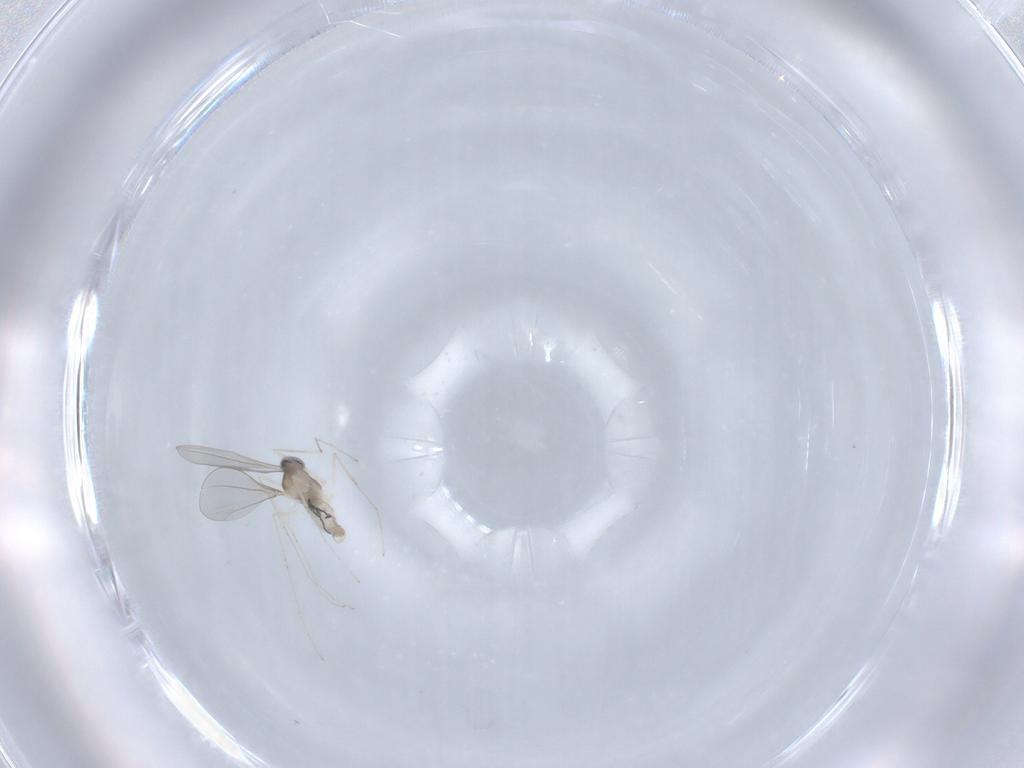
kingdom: Animalia
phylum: Arthropoda
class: Insecta
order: Diptera
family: Cecidomyiidae
